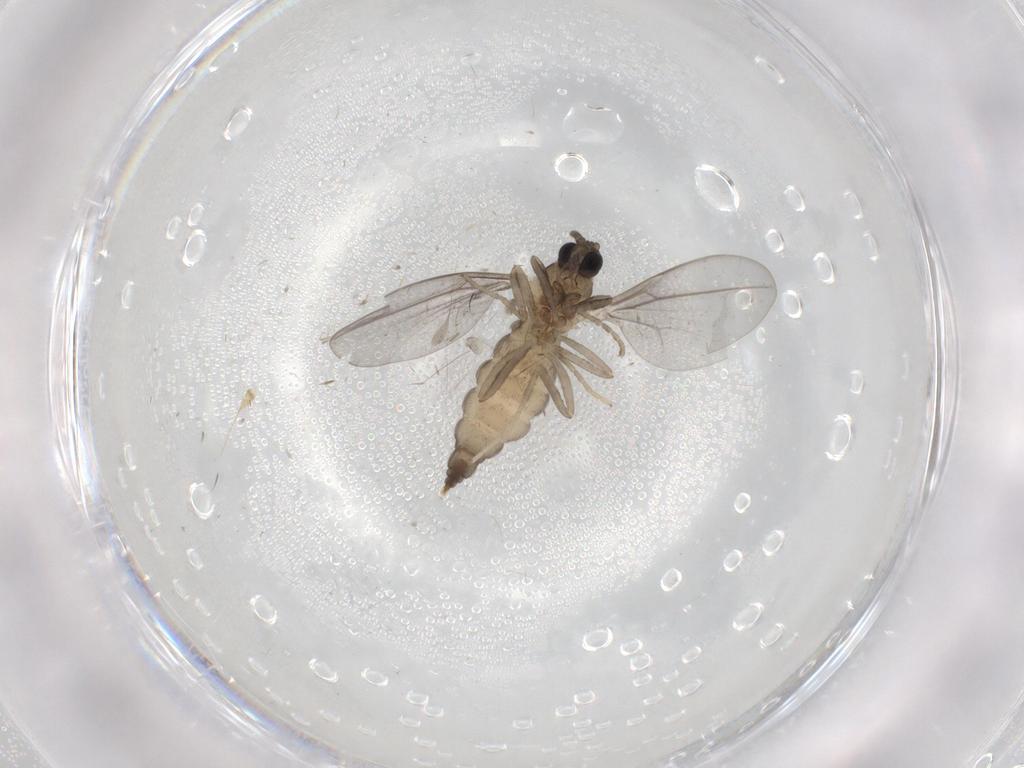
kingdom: Animalia
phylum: Arthropoda
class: Insecta
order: Diptera
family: Cecidomyiidae
